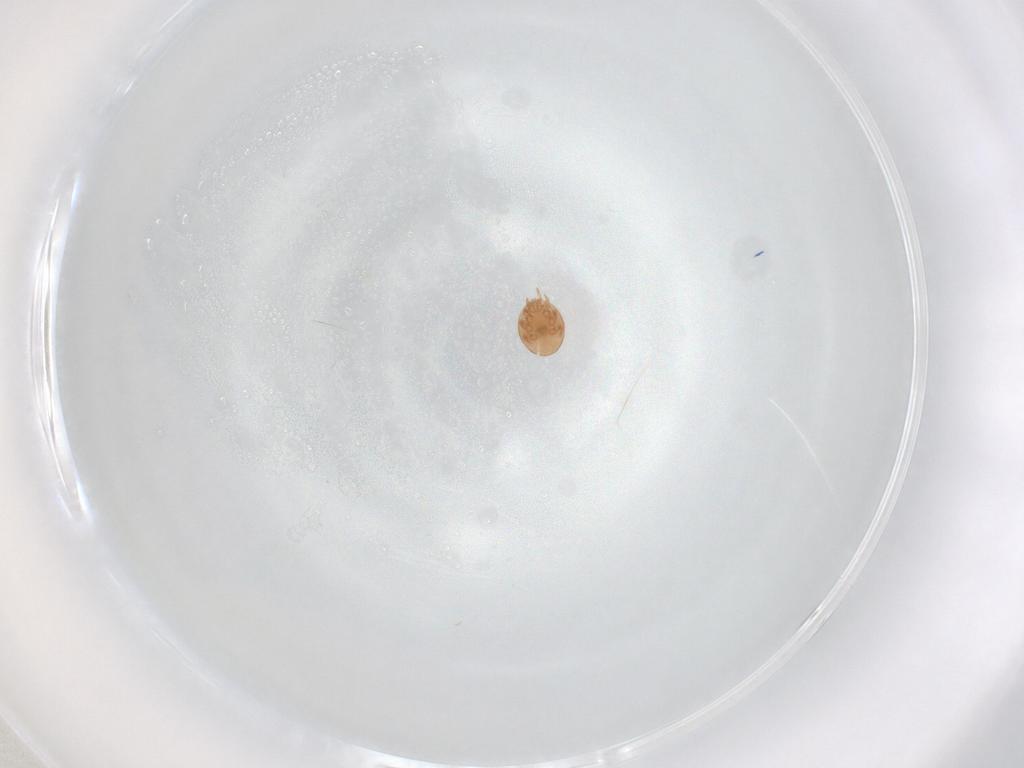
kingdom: Animalia
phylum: Arthropoda
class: Arachnida
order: Mesostigmata
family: Trematuridae
